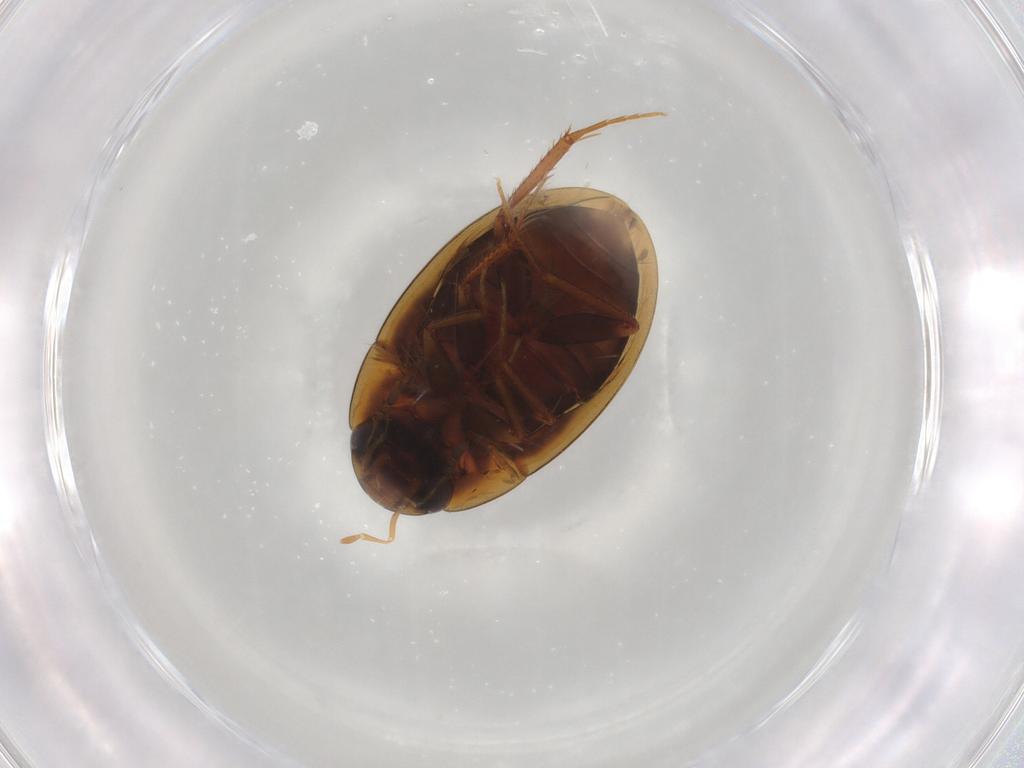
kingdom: Animalia
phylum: Arthropoda
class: Insecta
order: Coleoptera
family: Hydrophilidae
